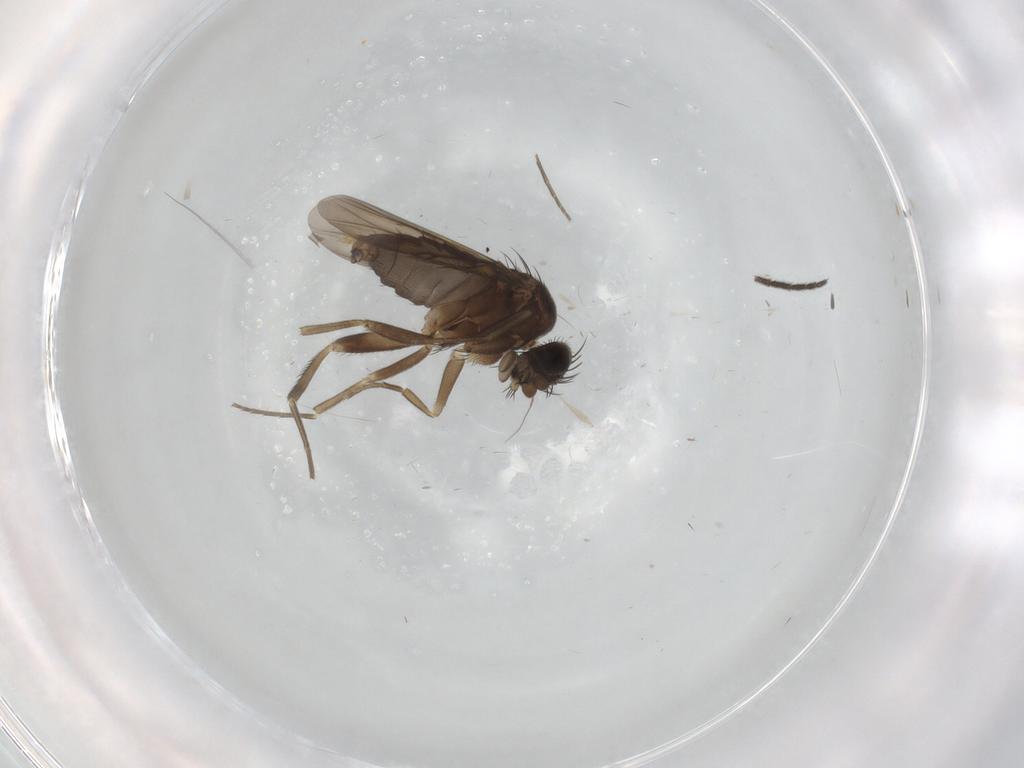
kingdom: Animalia
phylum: Arthropoda
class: Insecta
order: Diptera
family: Phoridae
